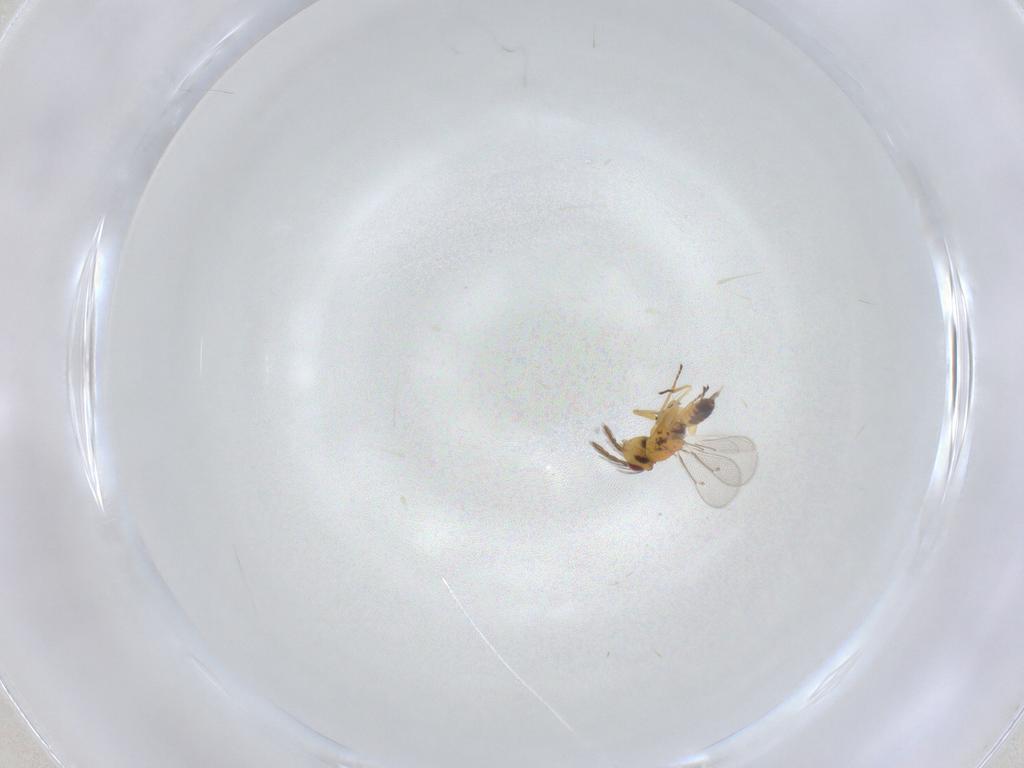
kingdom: Animalia
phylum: Arthropoda
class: Insecta
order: Hymenoptera
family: Eulophidae
